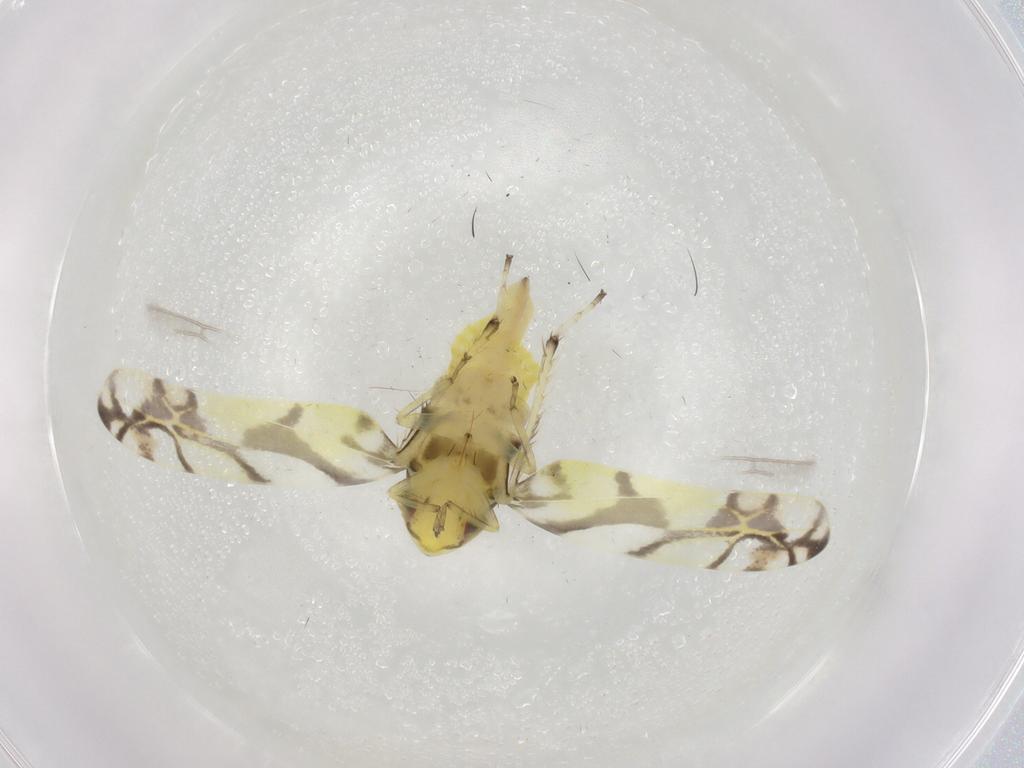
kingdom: Animalia
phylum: Arthropoda
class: Insecta
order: Hemiptera
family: Cicadellidae
